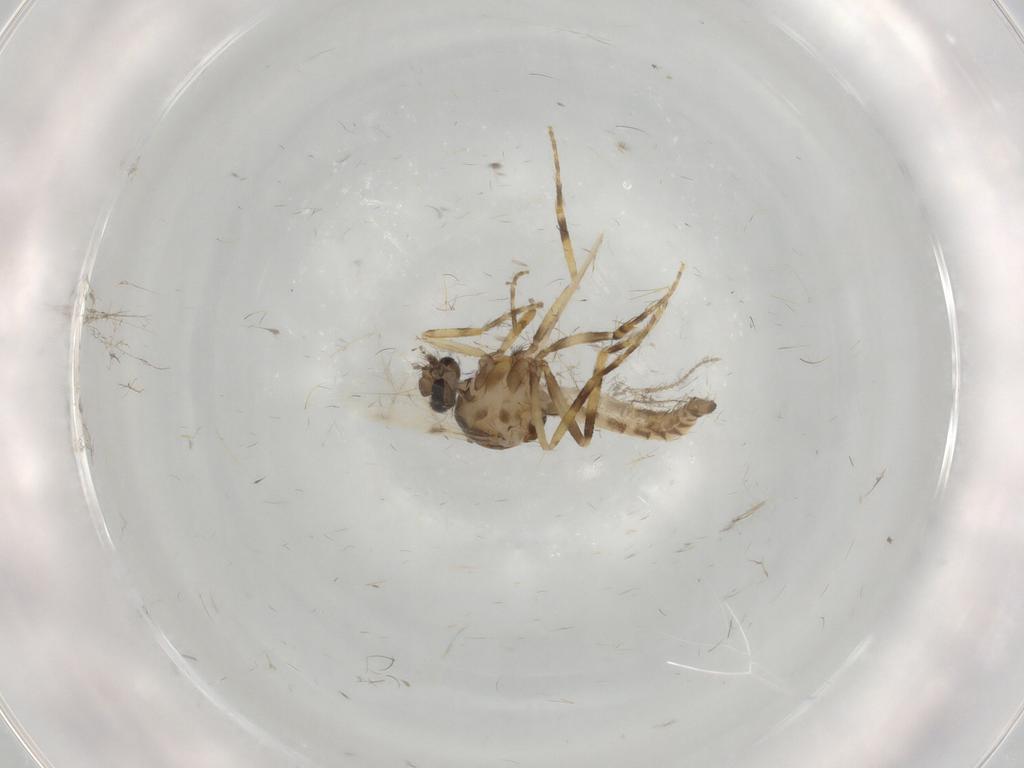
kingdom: Animalia
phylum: Arthropoda
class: Insecta
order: Diptera
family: Ceratopogonidae
